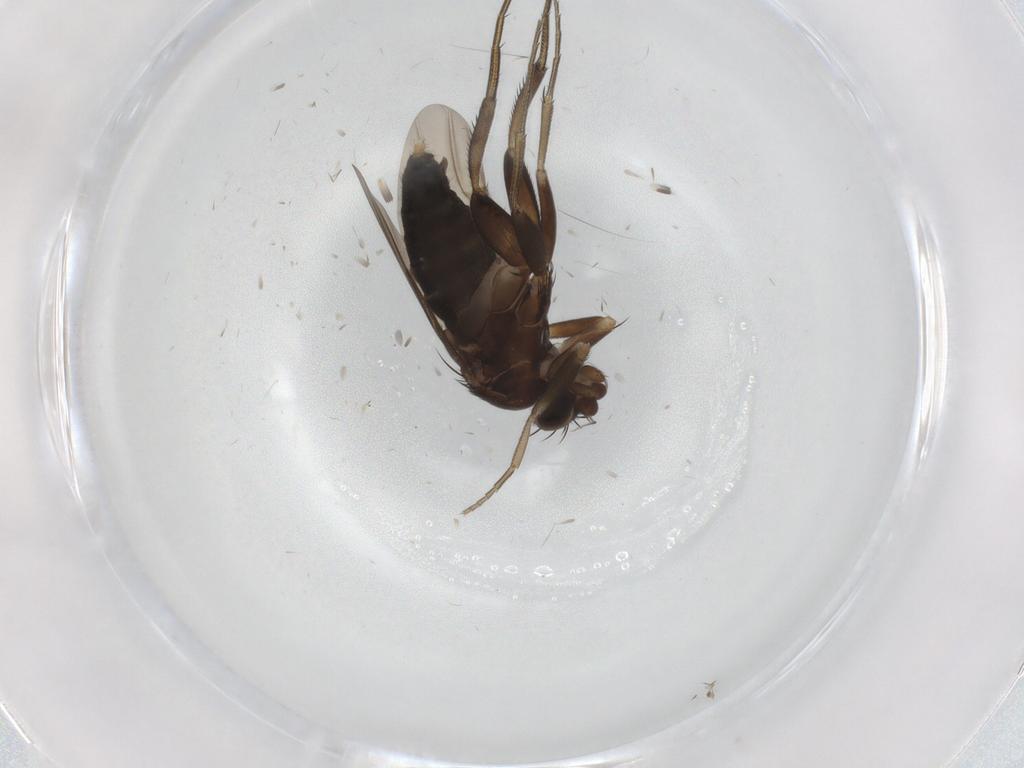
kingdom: Animalia
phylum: Arthropoda
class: Insecta
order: Diptera
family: Phoridae
